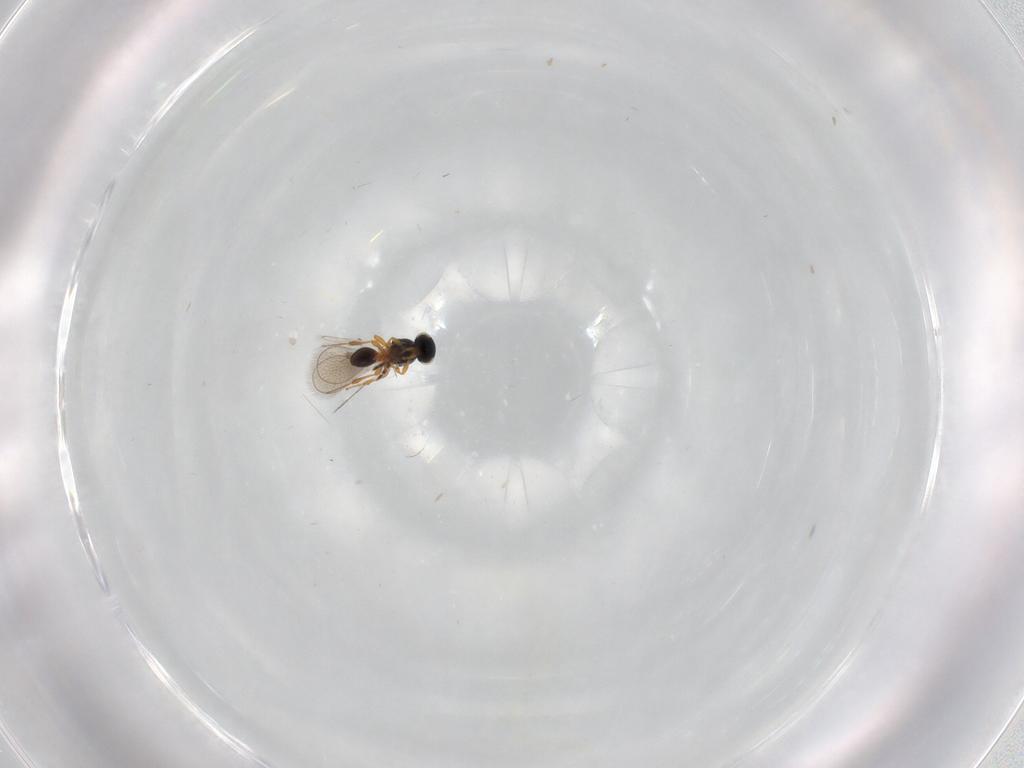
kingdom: Animalia
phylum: Arthropoda
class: Insecta
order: Hymenoptera
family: Platygastridae
